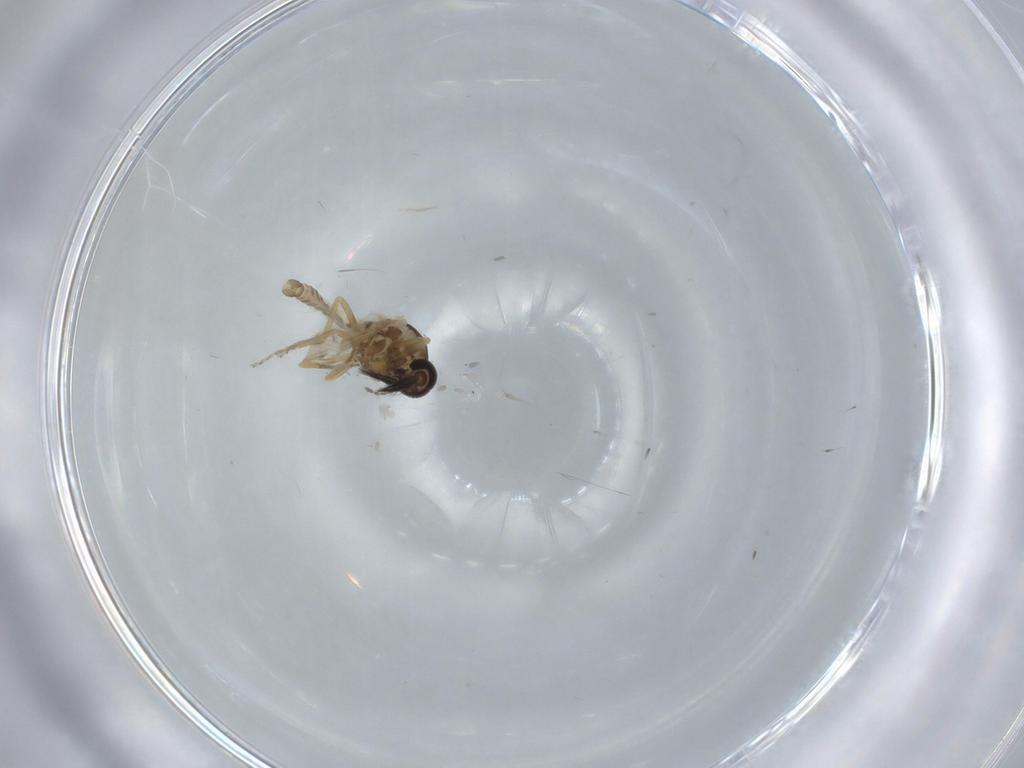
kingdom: Animalia
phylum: Arthropoda
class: Insecta
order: Diptera
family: Ceratopogonidae
